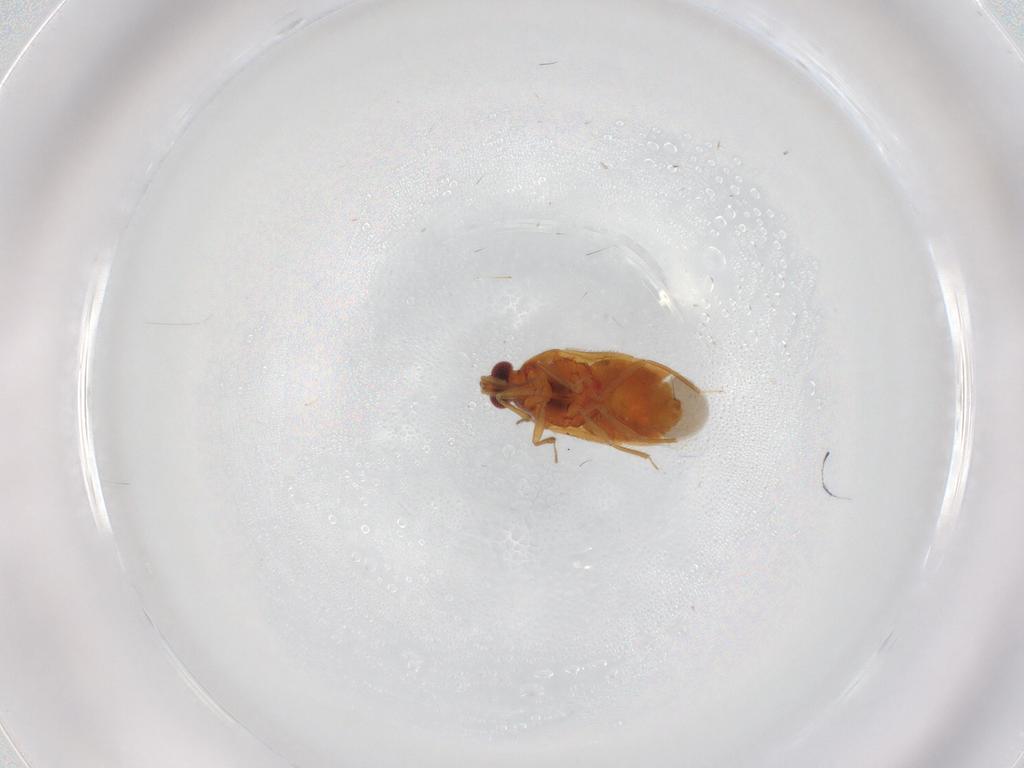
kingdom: Animalia
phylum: Arthropoda
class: Insecta
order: Hemiptera
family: Anthocoridae
